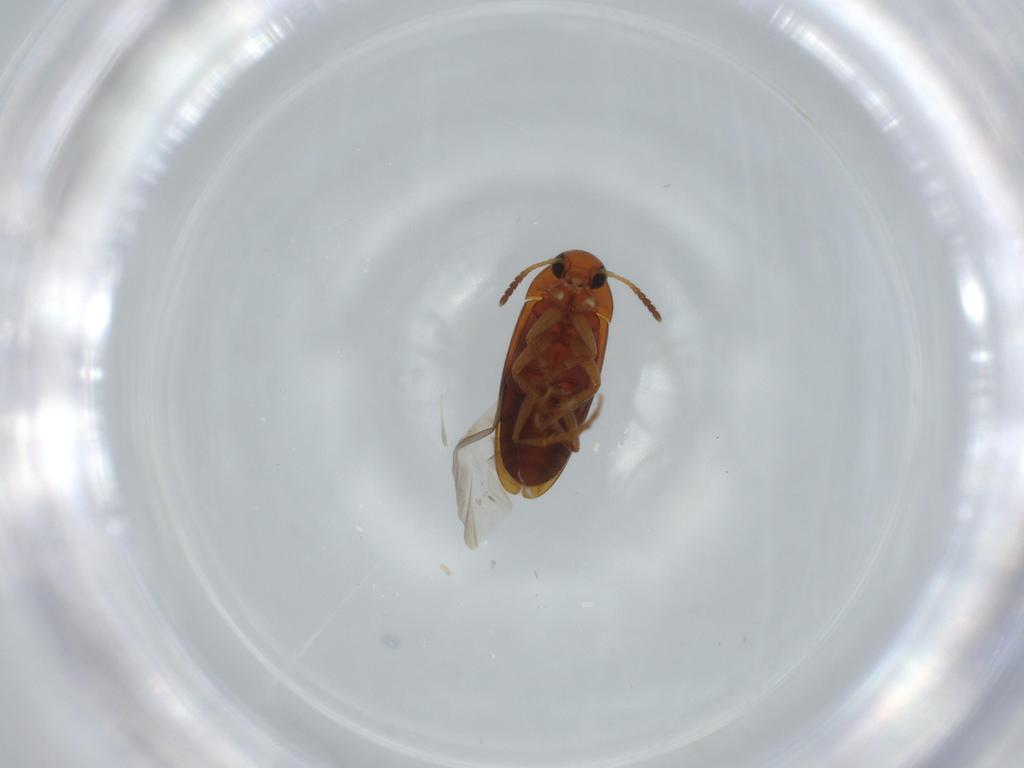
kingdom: Animalia
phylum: Arthropoda
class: Insecta
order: Coleoptera
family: Scraptiidae
